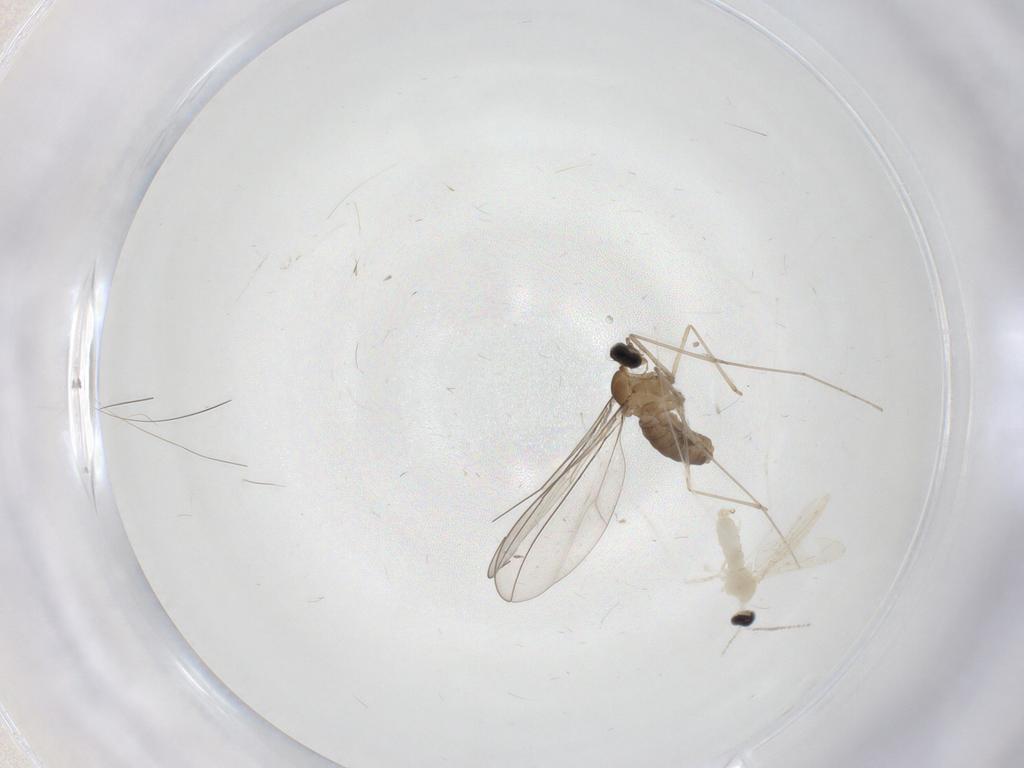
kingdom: Animalia
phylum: Arthropoda
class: Insecta
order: Diptera
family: Cecidomyiidae
